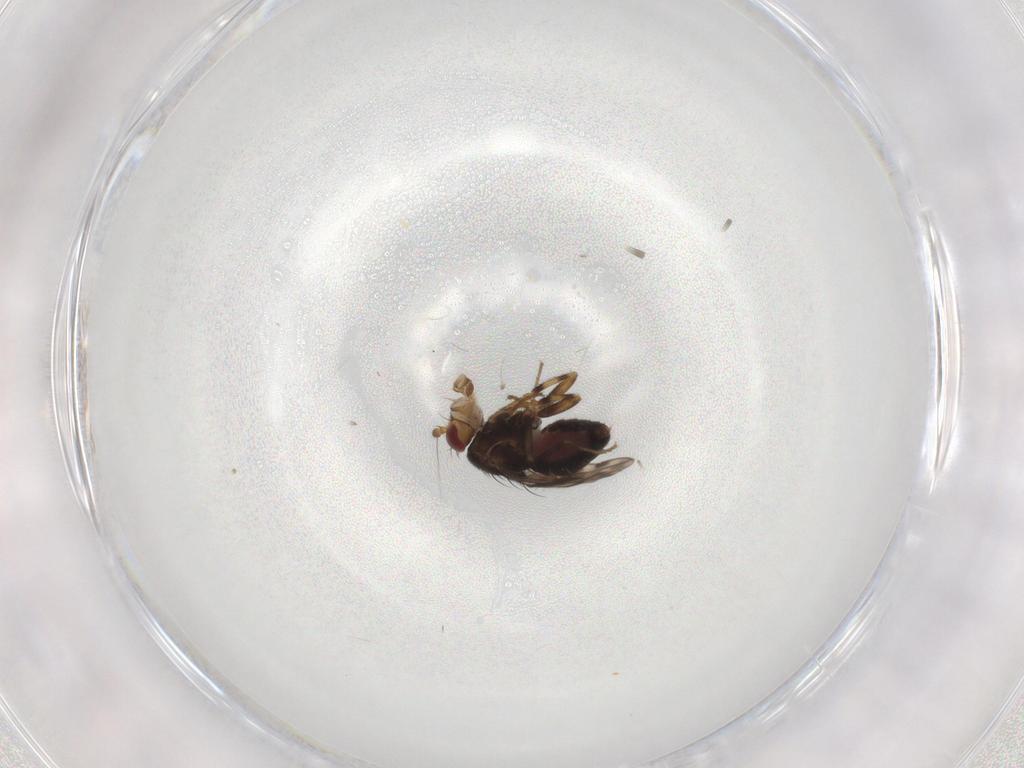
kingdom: Animalia
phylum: Arthropoda
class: Insecta
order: Diptera
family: Sphaeroceridae
